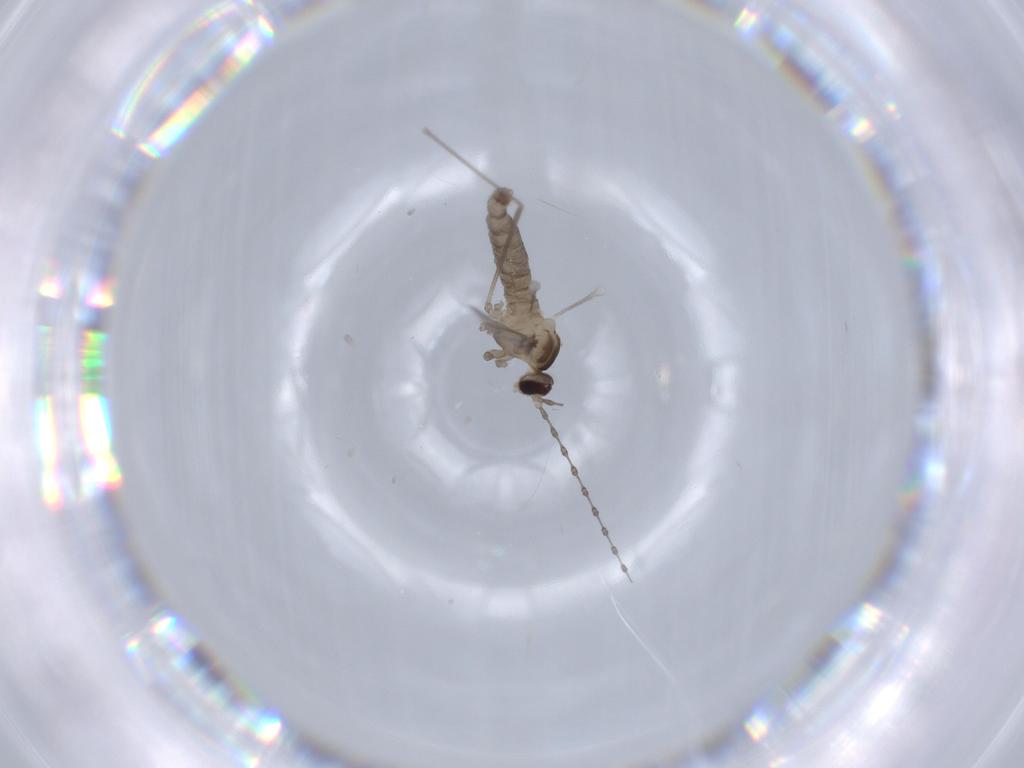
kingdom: Animalia
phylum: Arthropoda
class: Insecta
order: Diptera
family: Cecidomyiidae
